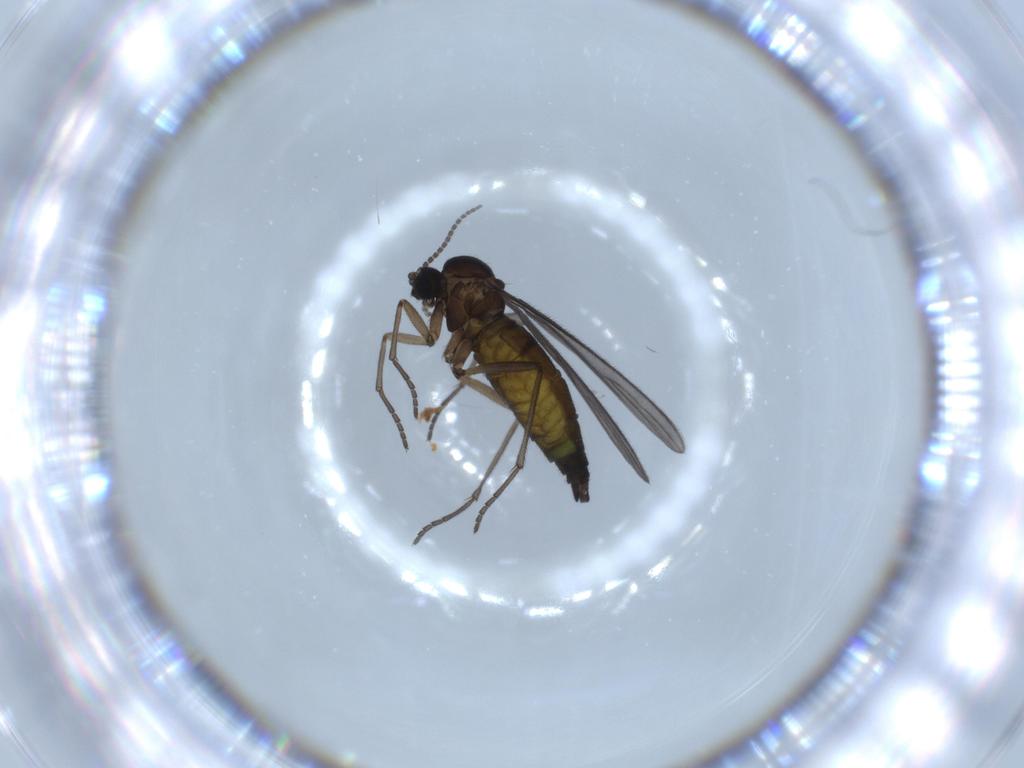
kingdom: Animalia
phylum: Arthropoda
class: Insecta
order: Diptera
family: Sciaridae
